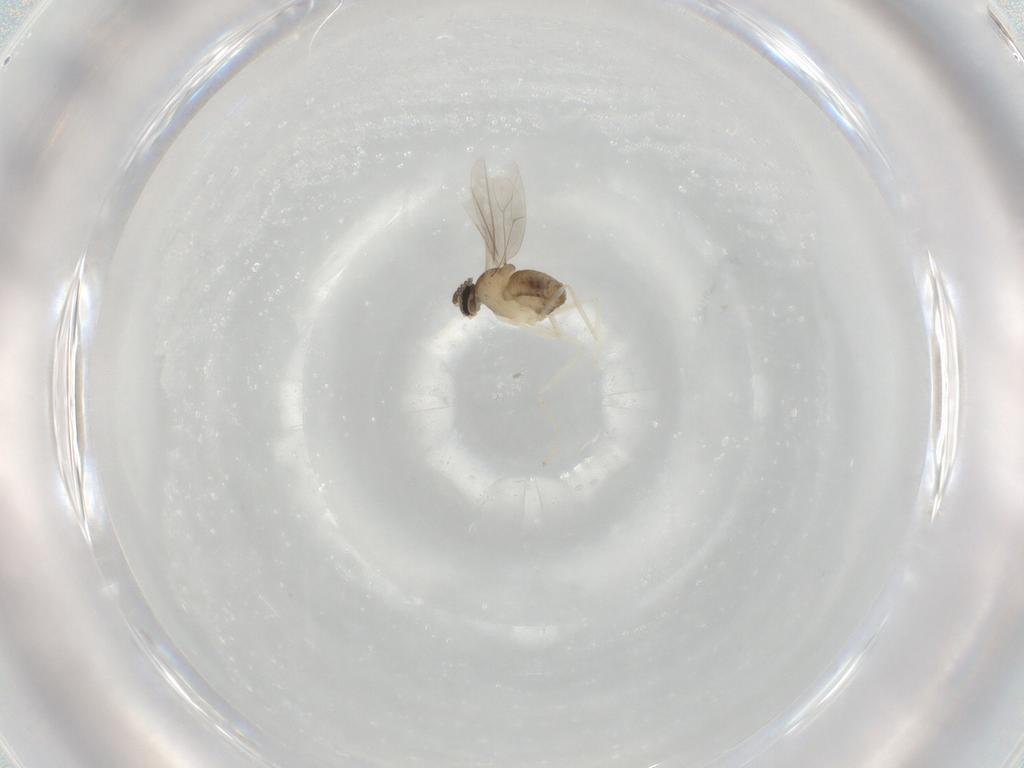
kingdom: Animalia
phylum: Arthropoda
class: Insecta
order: Diptera
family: Cecidomyiidae
